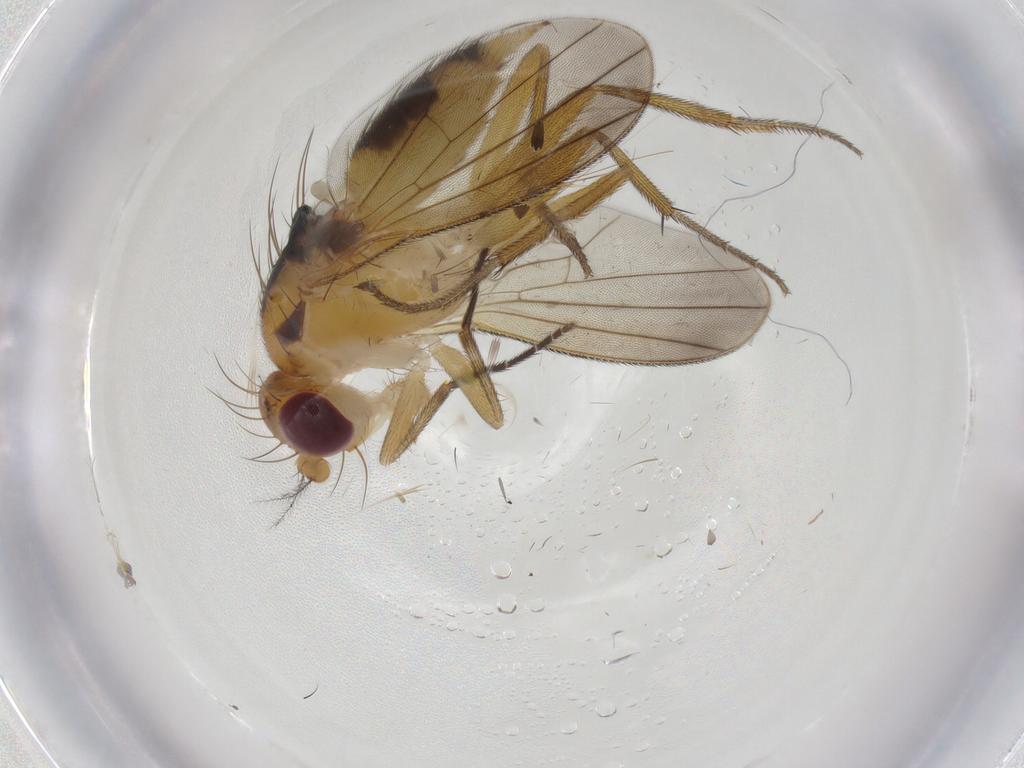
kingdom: Animalia
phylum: Arthropoda
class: Insecta
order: Diptera
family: Clusiidae
